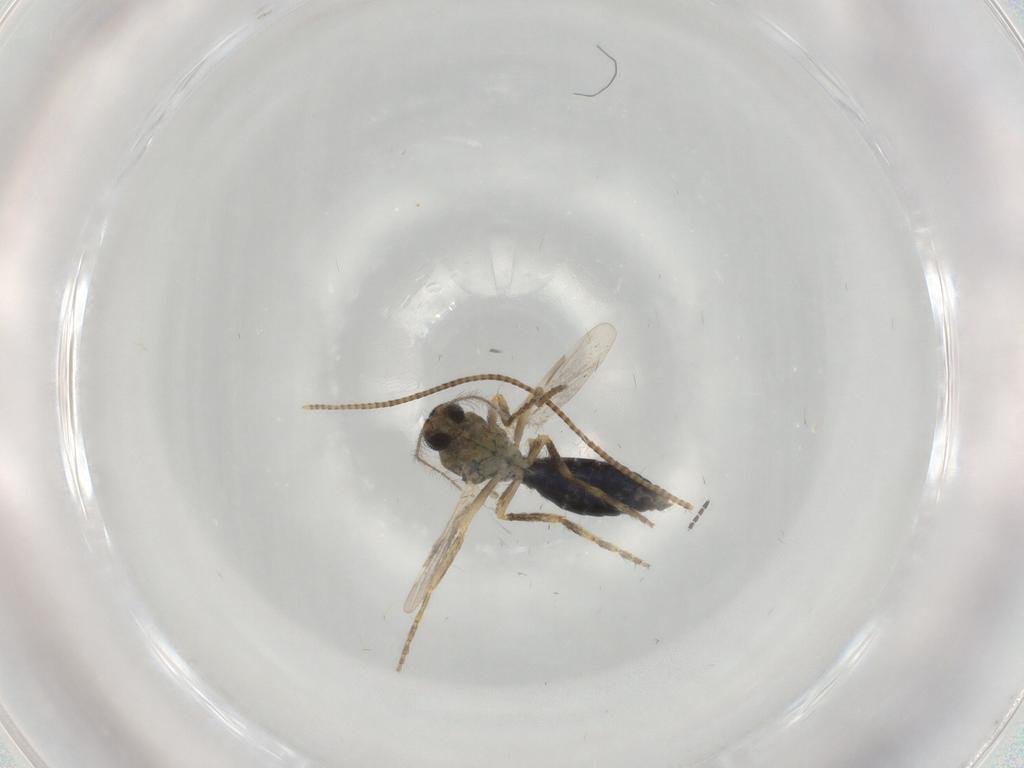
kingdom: Animalia
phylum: Arthropoda
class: Insecta
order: Diptera
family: Ceratopogonidae
